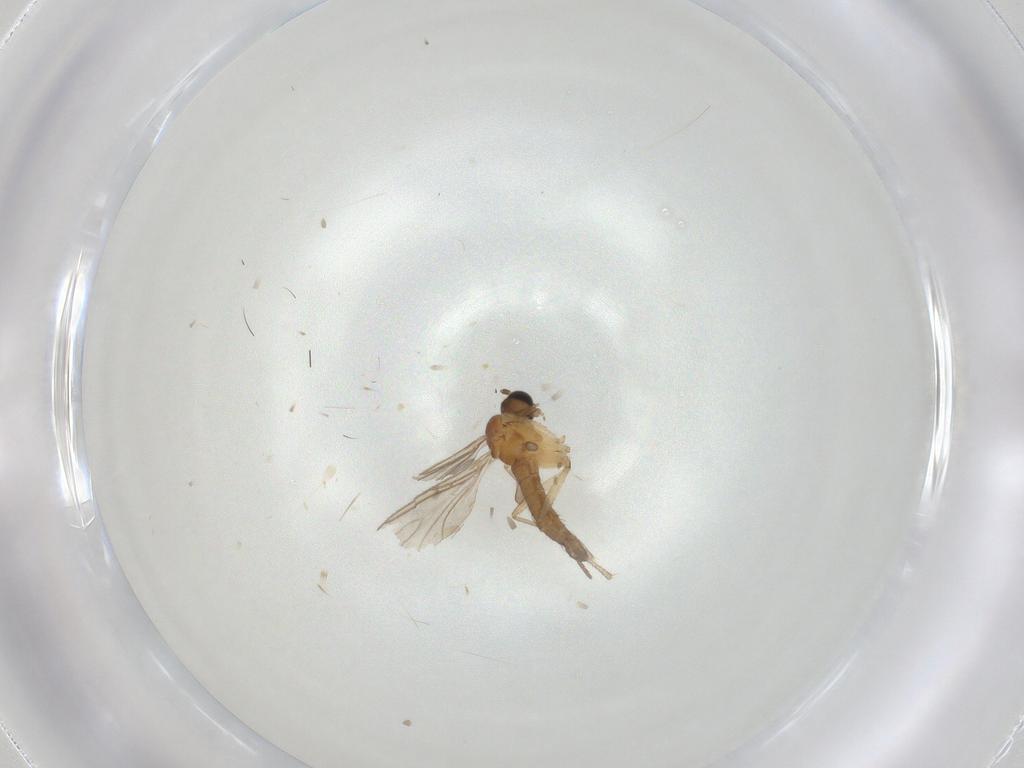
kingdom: Animalia
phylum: Arthropoda
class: Insecta
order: Diptera
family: Sciaridae
